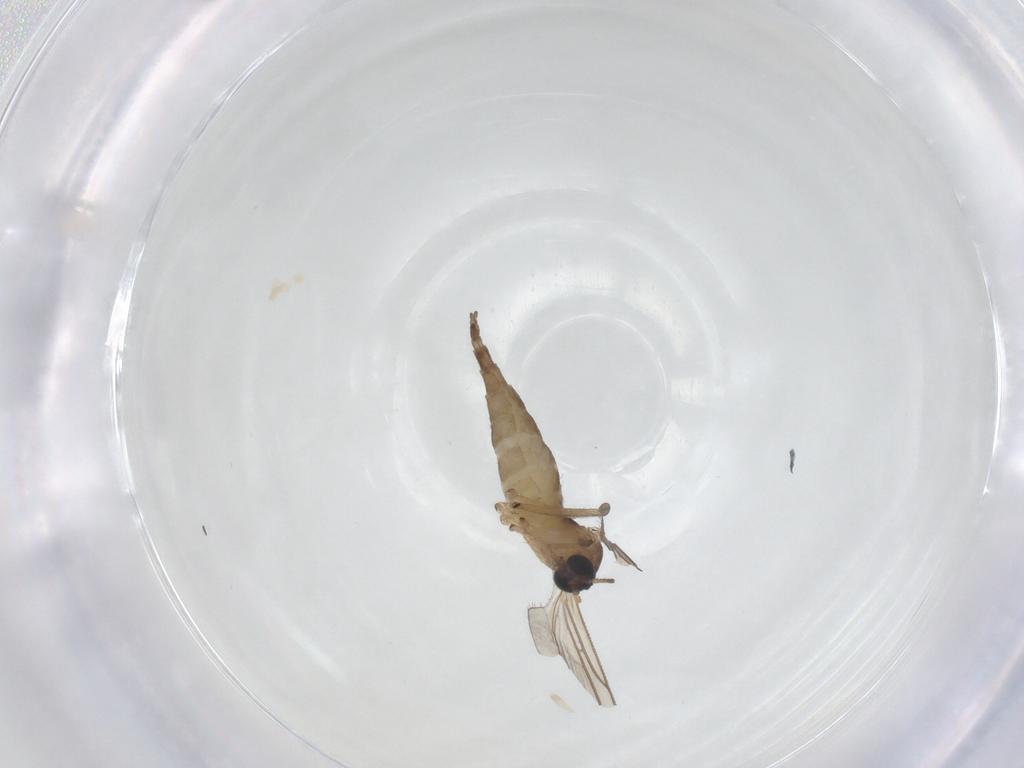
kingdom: Animalia
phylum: Arthropoda
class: Insecta
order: Diptera
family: Sciaridae
